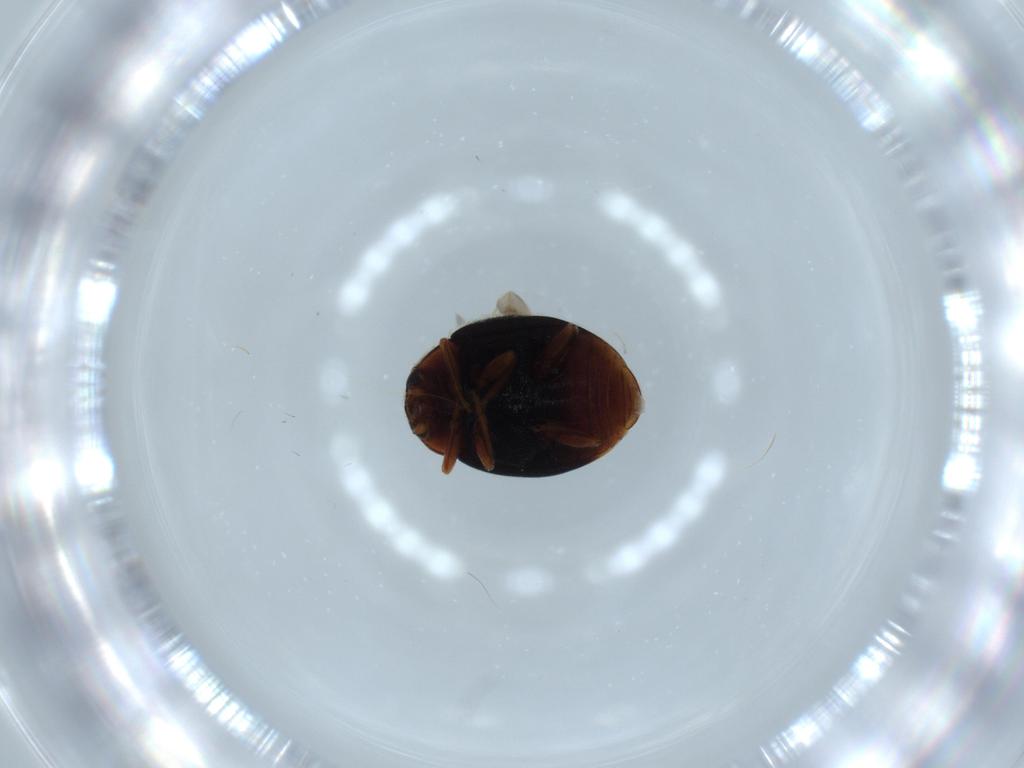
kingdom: Animalia
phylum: Arthropoda
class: Insecta
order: Coleoptera
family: Coccinellidae
